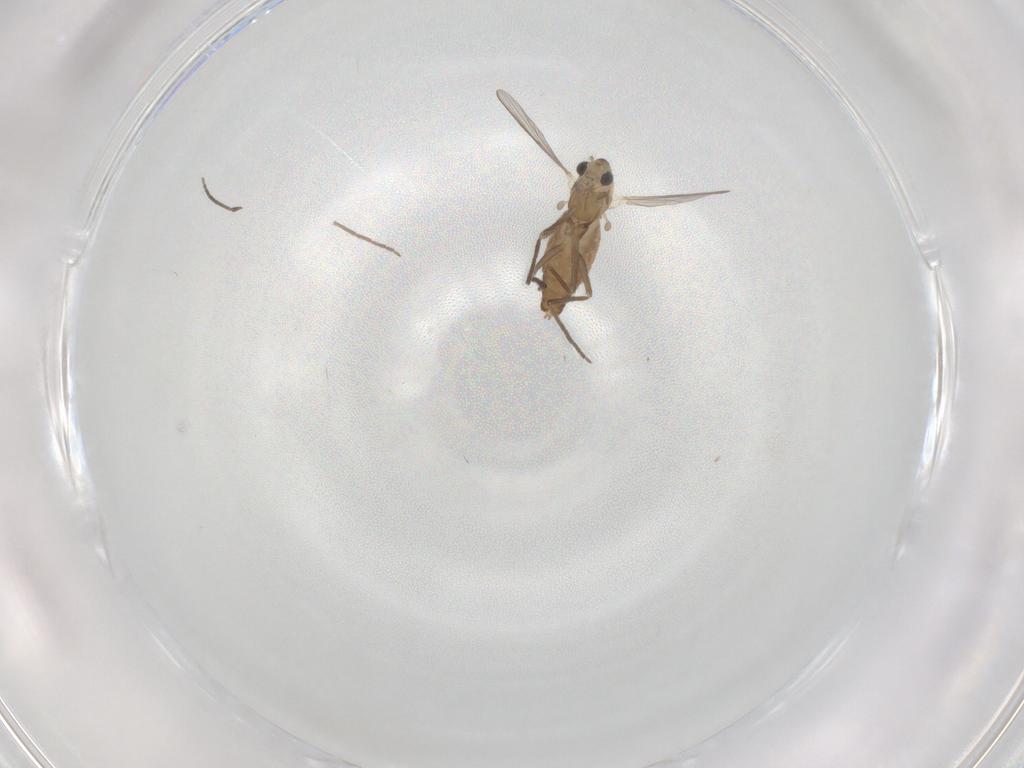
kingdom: Animalia
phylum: Arthropoda
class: Insecta
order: Diptera
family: Chironomidae
